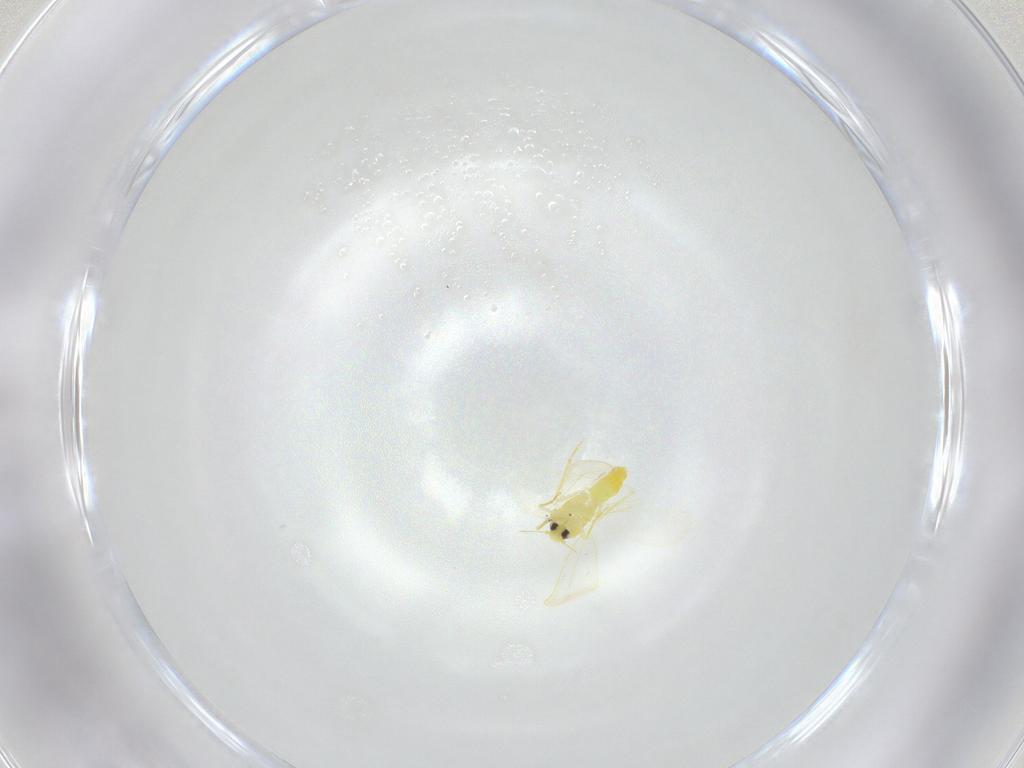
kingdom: Animalia
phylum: Arthropoda
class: Insecta
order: Hemiptera
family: Aleyrodidae
